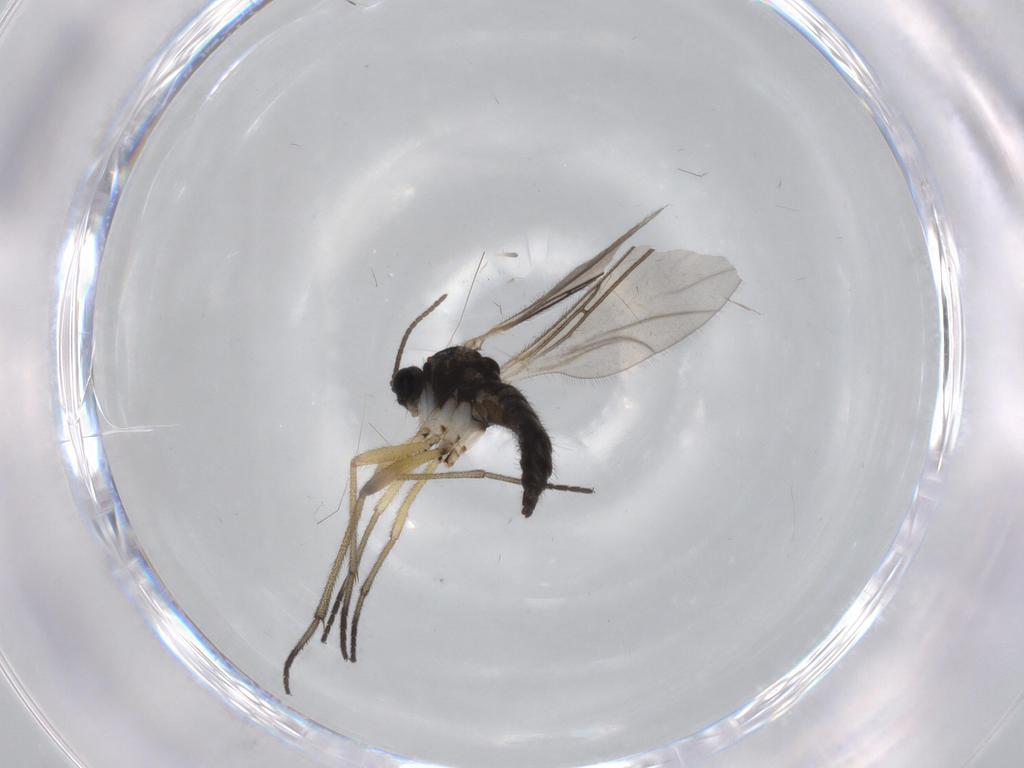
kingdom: Animalia
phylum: Arthropoda
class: Insecta
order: Diptera
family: Sciaridae
